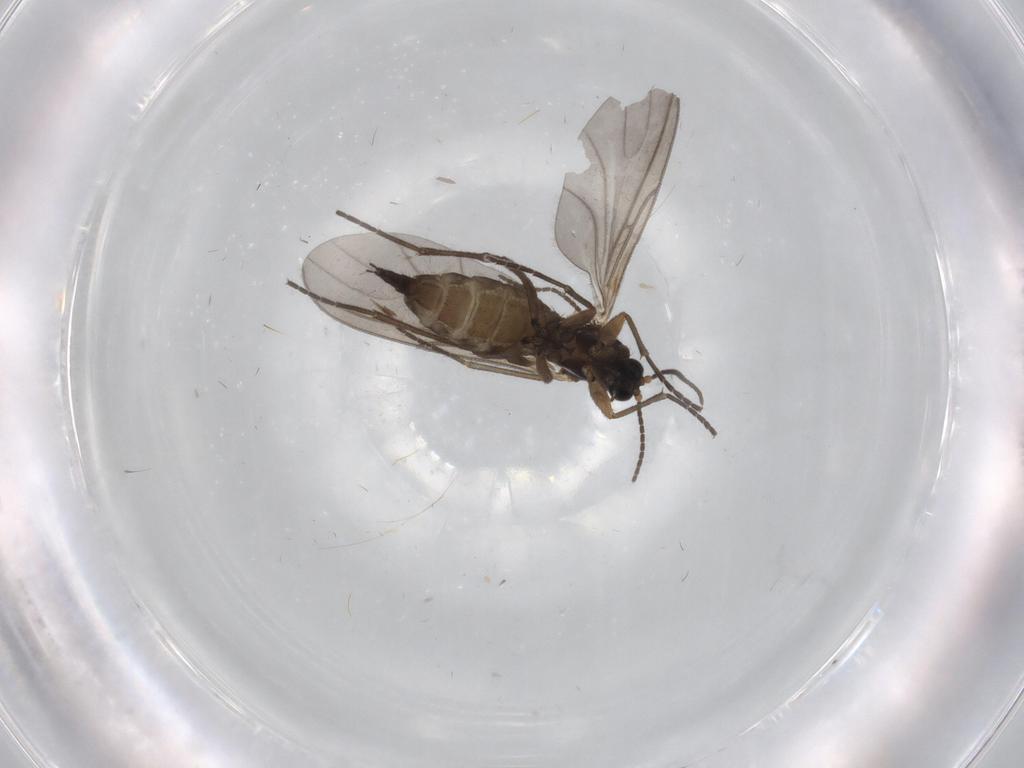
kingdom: Animalia
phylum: Arthropoda
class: Insecta
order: Diptera
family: Sciaridae
